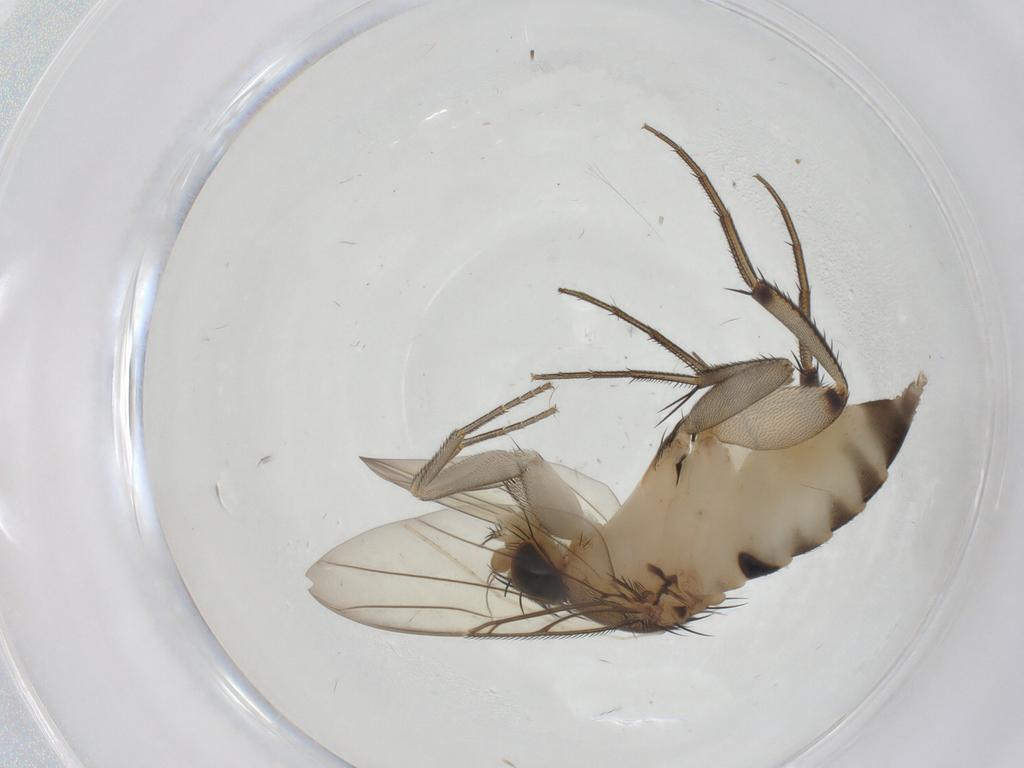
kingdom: Animalia
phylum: Arthropoda
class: Insecta
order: Diptera
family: Phoridae
